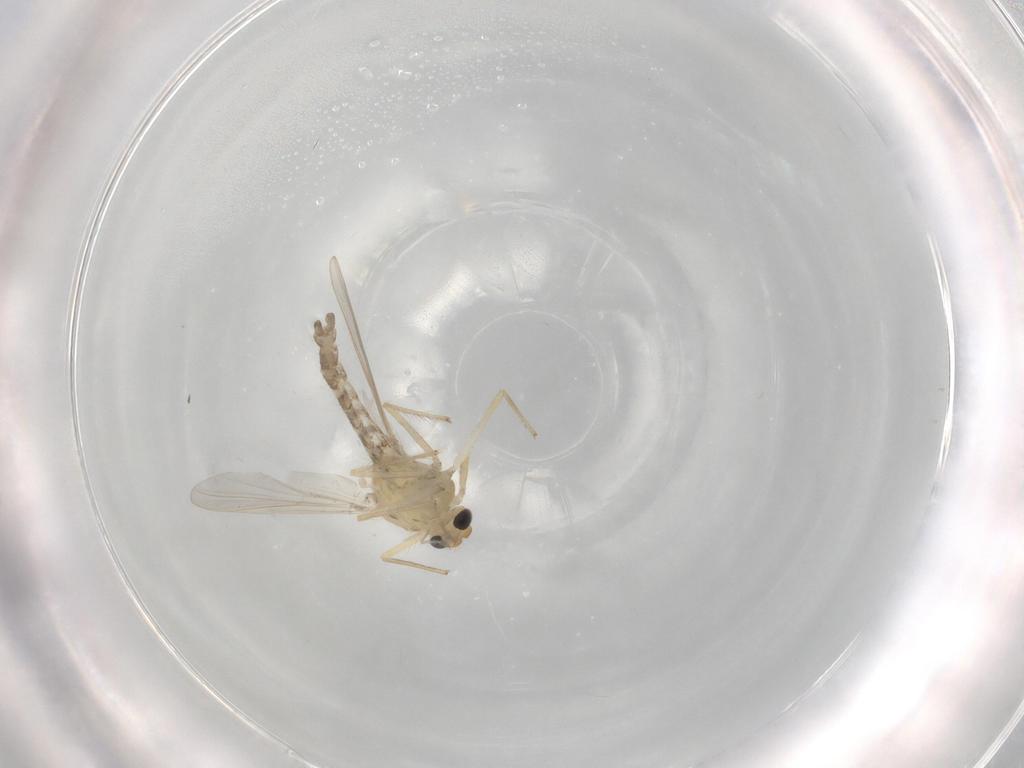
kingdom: Animalia
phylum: Arthropoda
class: Insecta
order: Diptera
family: Chironomidae
